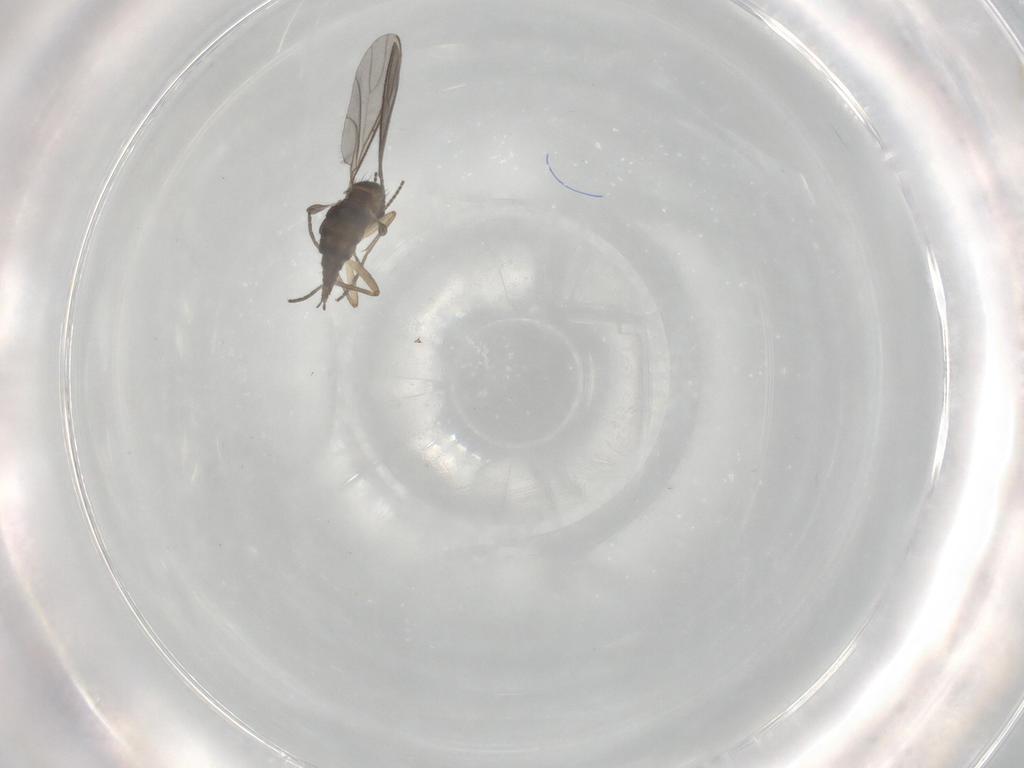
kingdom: Animalia
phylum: Arthropoda
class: Insecta
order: Diptera
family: Sciaridae
